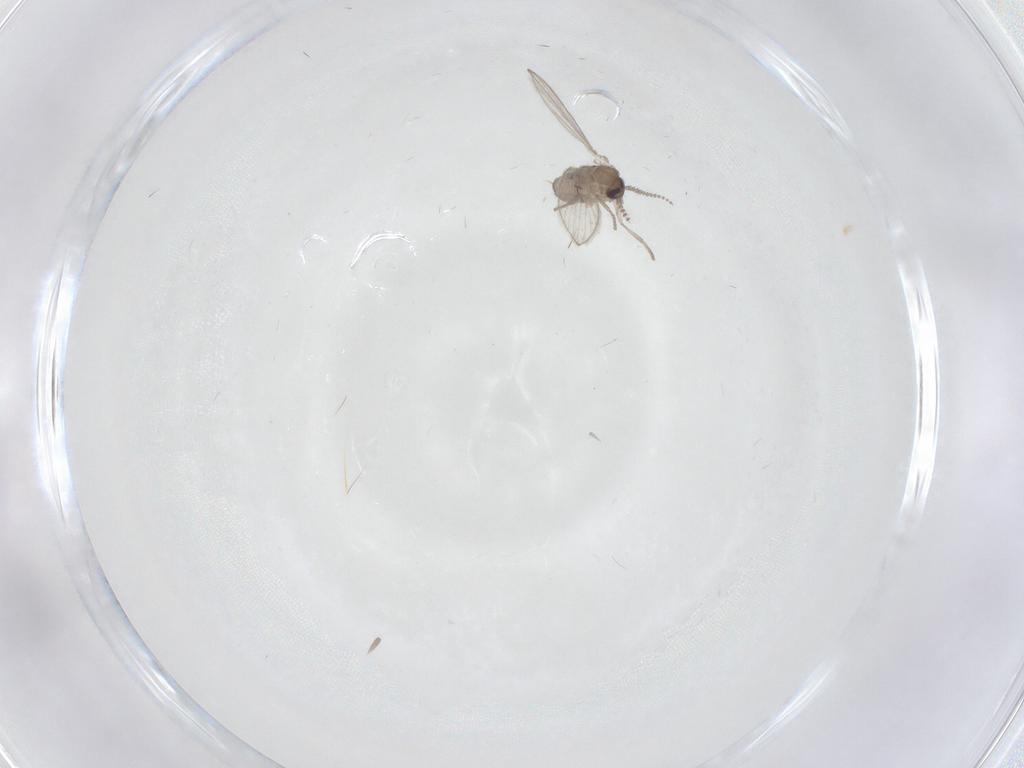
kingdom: Animalia
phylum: Arthropoda
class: Insecta
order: Diptera
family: Psychodidae
